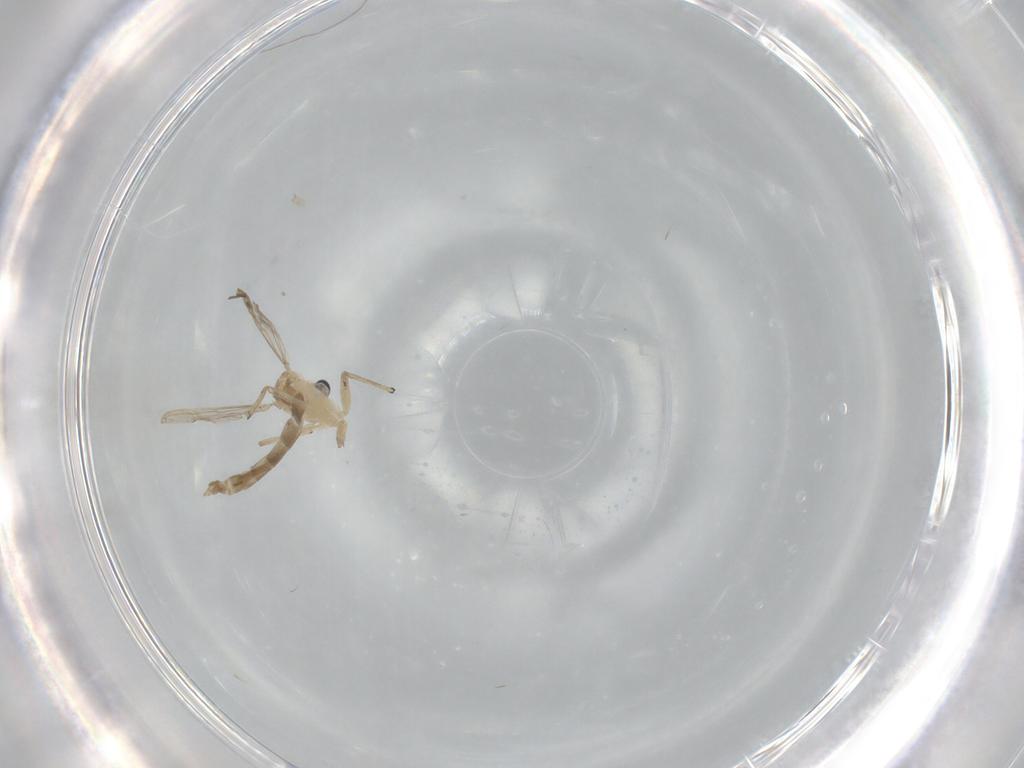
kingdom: Animalia
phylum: Arthropoda
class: Insecta
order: Diptera
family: Chironomidae
